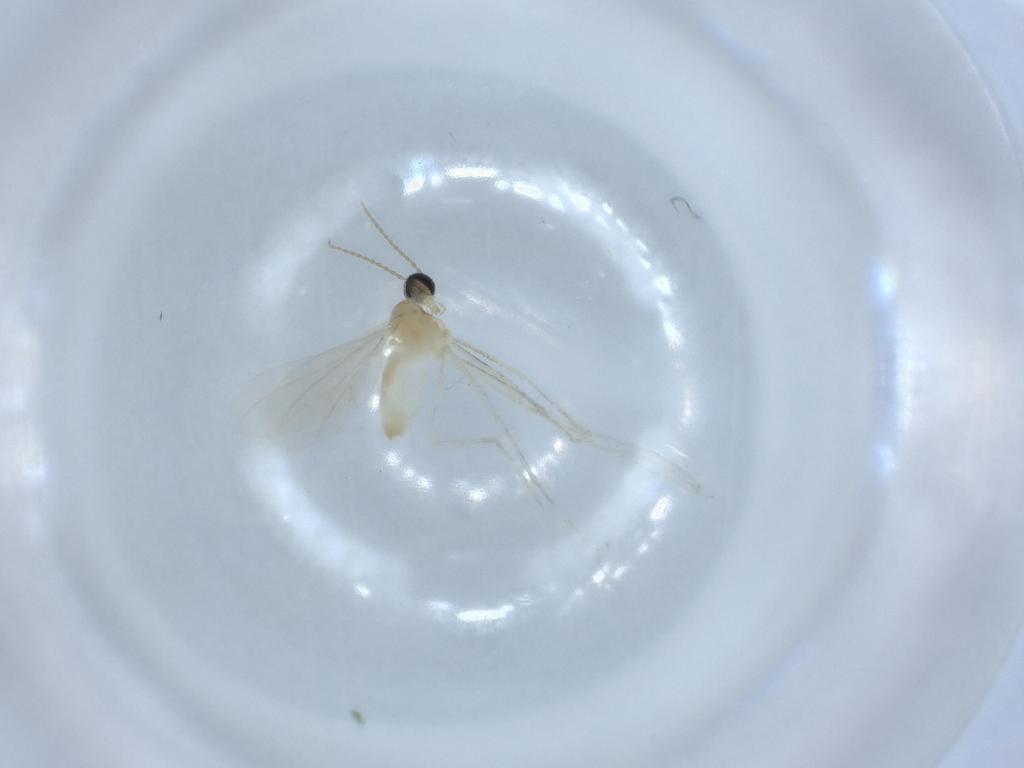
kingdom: Animalia
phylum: Arthropoda
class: Insecta
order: Diptera
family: Cecidomyiidae
